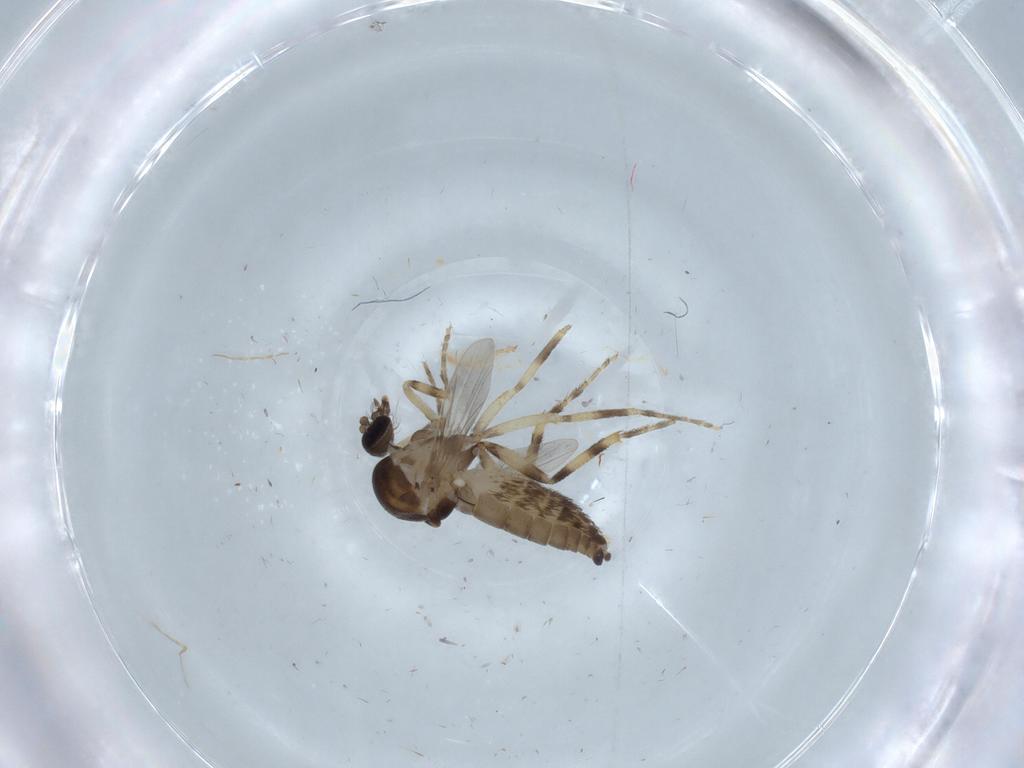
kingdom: Animalia
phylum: Arthropoda
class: Insecta
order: Diptera
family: Ceratopogonidae
